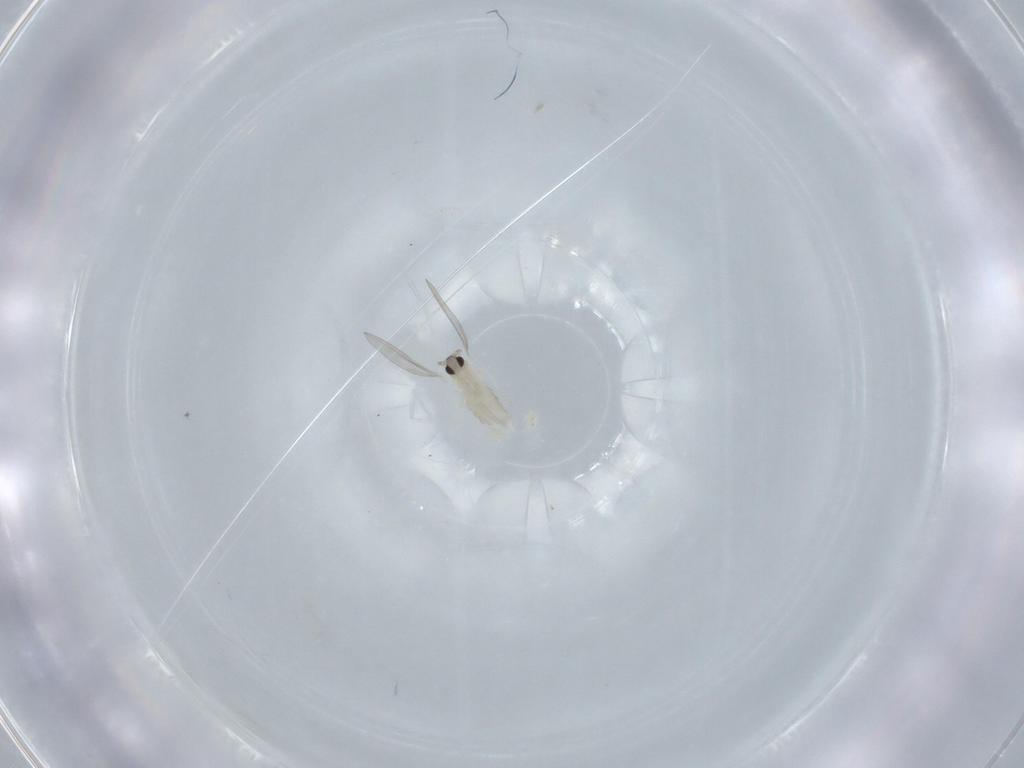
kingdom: Animalia
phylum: Arthropoda
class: Insecta
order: Diptera
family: Cecidomyiidae
